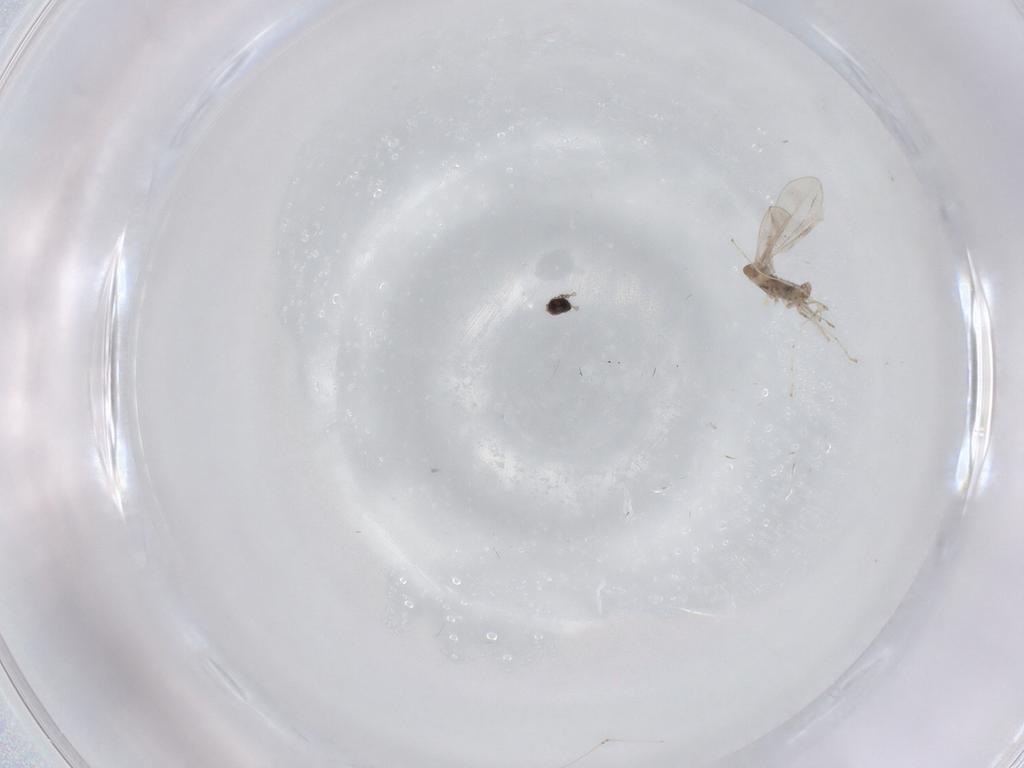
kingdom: Animalia
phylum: Arthropoda
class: Insecta
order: Diptera
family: Cecidomyiidae
